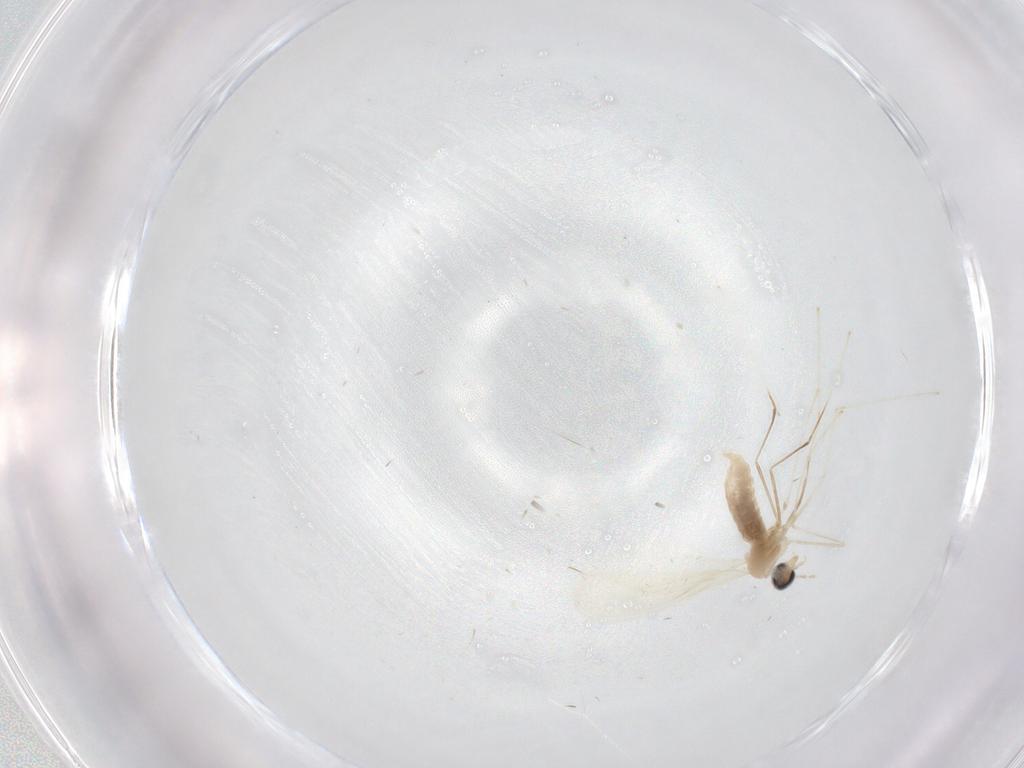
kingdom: Animalia
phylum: Arthropoda
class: Insecta
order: Diptera
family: Cecidomyiidae
